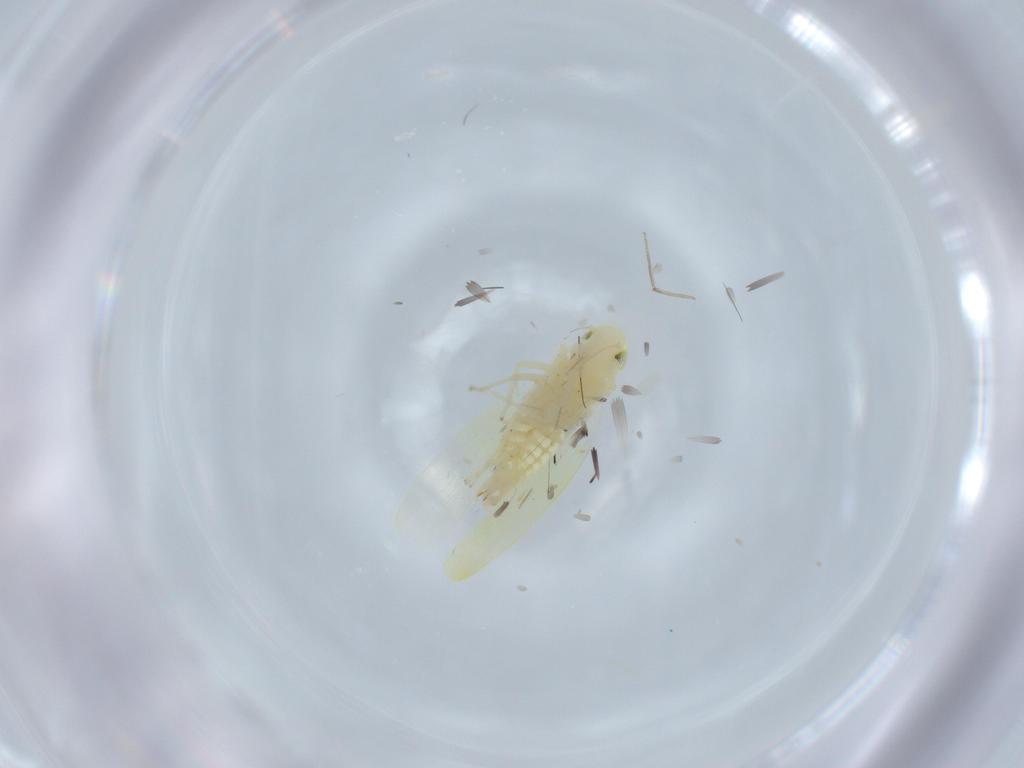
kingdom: Animalia
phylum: Arthropoda
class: Insecta
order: Hemiptera
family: Cicadellidae
